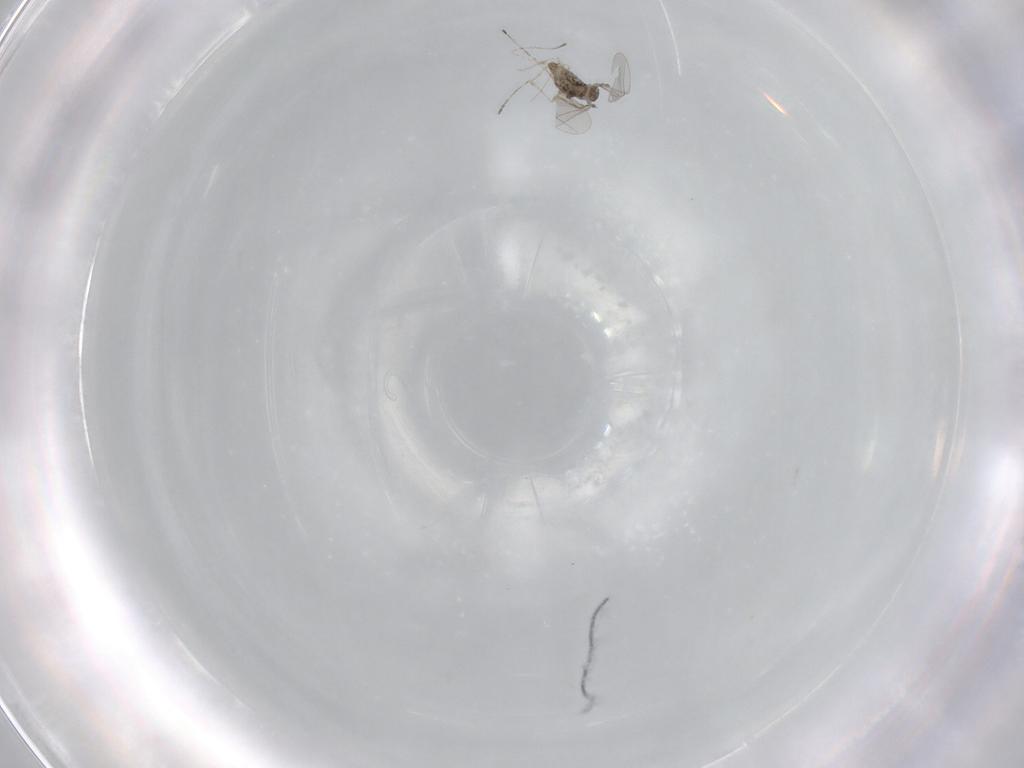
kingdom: Animalia
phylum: Arthropoda
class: Insecta
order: Diptera
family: Cecidomyiidae
